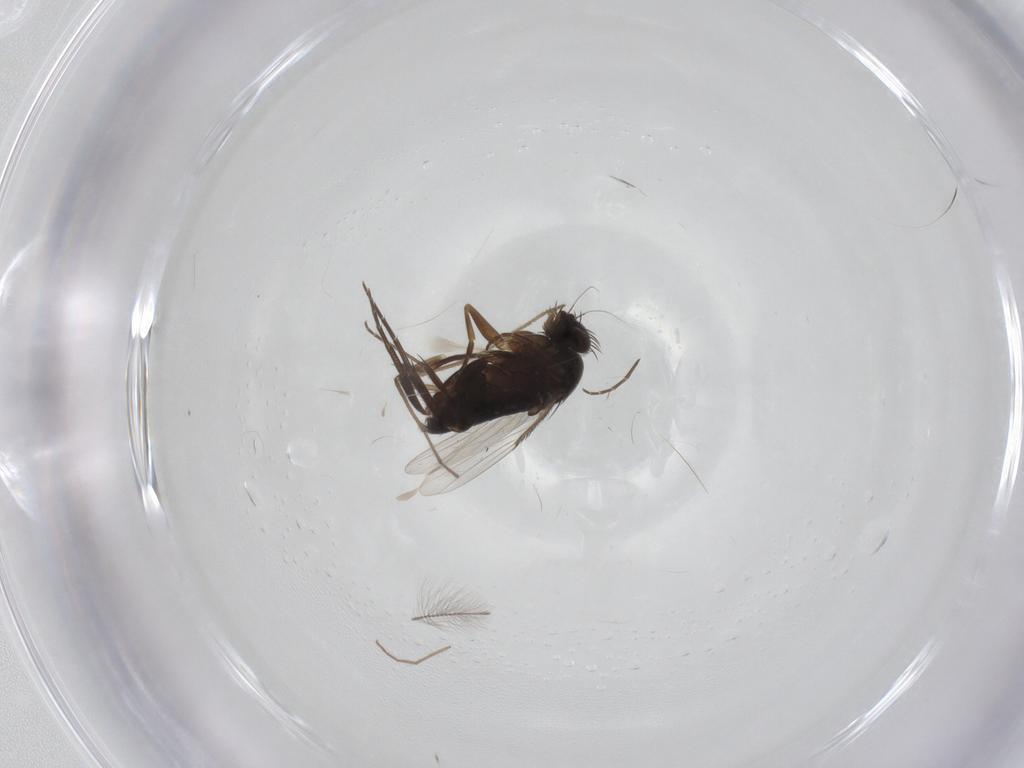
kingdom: Animalia
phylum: Arthropoda
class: Insecta
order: Diptera
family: Chironomidae
